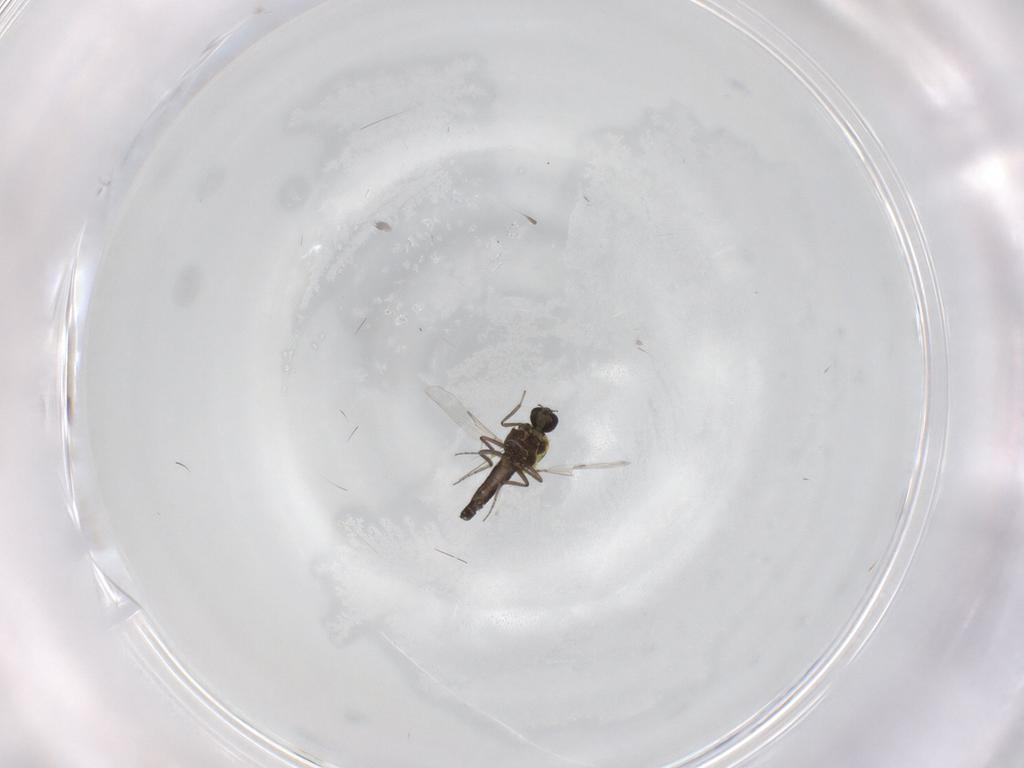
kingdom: Animalia
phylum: Arthropoda
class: Insecta
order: Diptera
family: Ceratopogonidae
